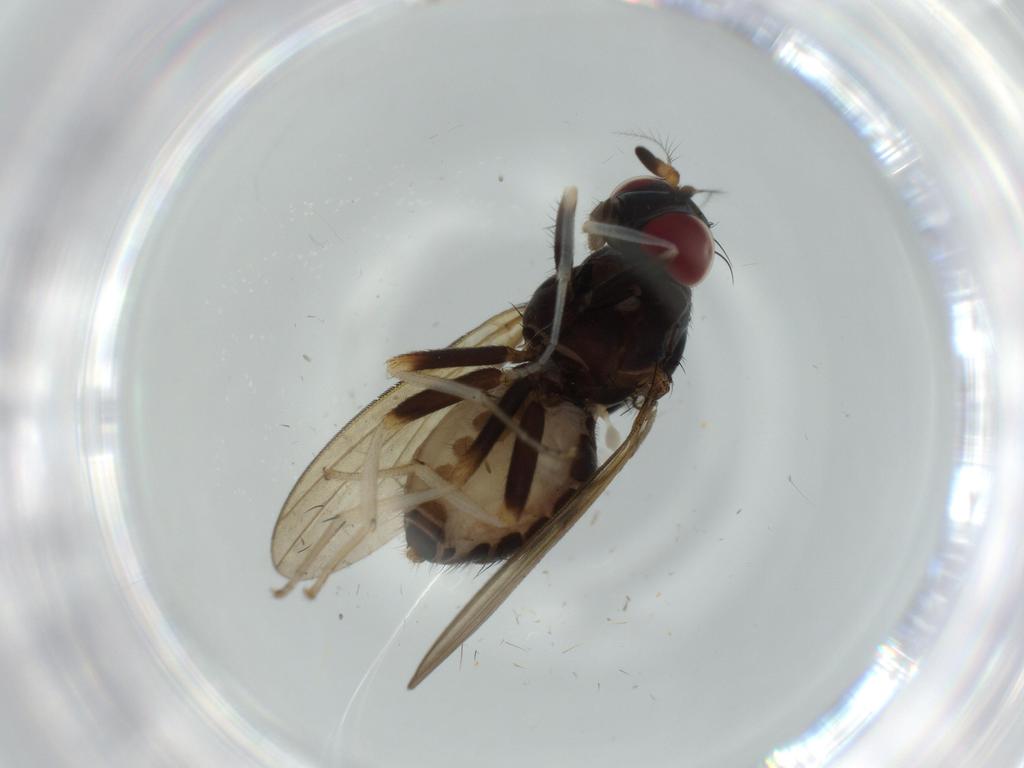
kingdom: Animalia
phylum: Arthropoda
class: Insecta
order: Diptera
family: Ceratopogonidae
